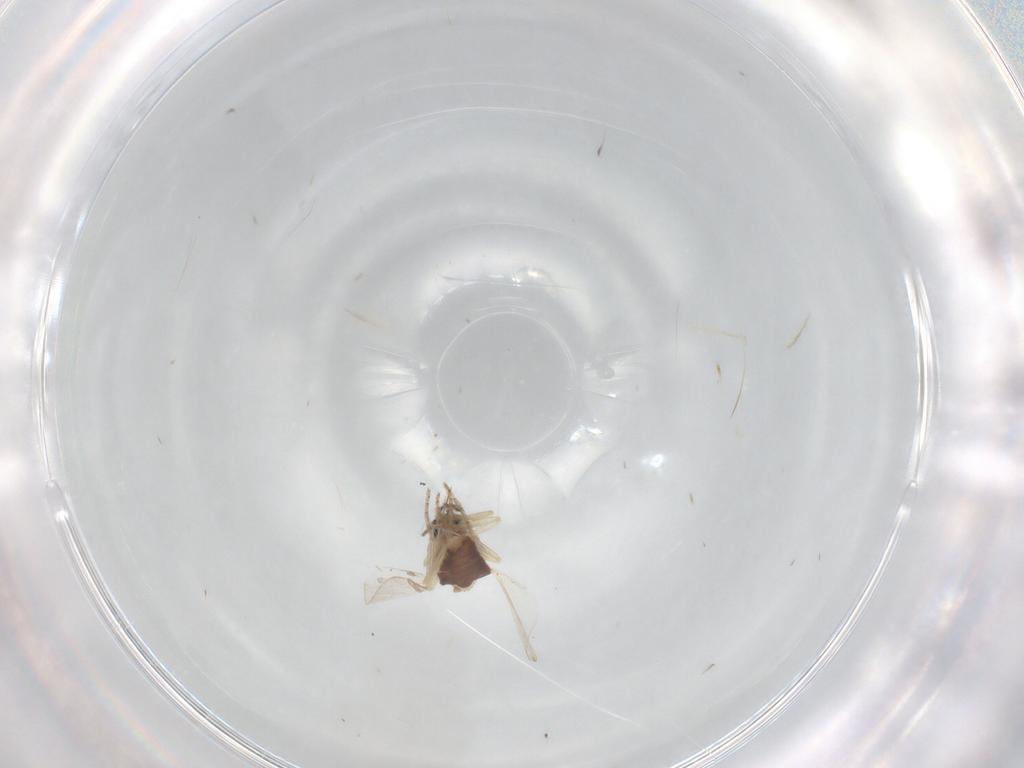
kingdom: Animalia
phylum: Arthropoda
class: Insecta
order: Diptera
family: Ceratopogonidae
